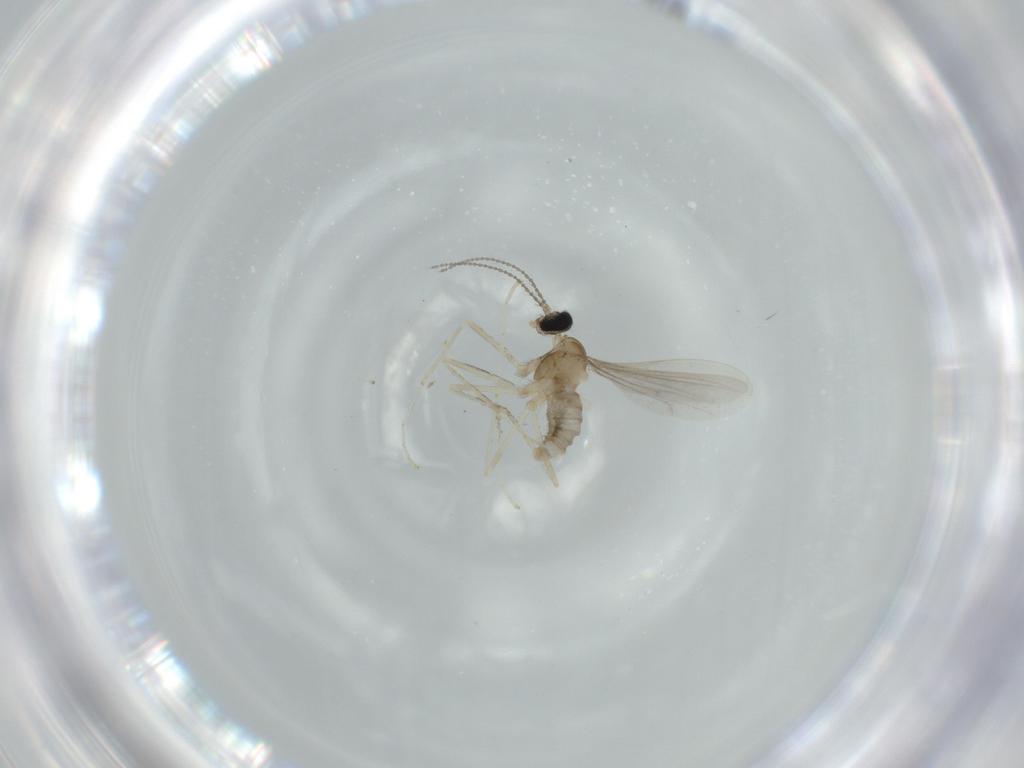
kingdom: Animalia
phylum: Arthropoda
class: Insecta
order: Diptera
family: Cecidomyiidae
